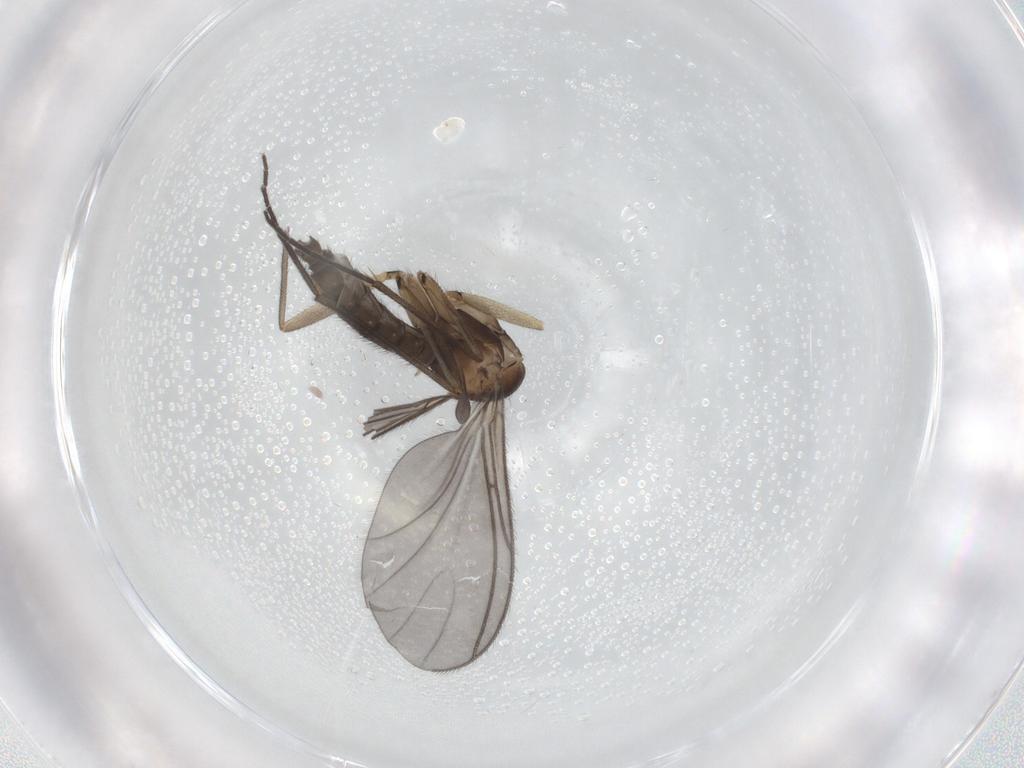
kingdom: Animalia
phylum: Arthropoda
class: Insecta
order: Diptera
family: Sciaridae
